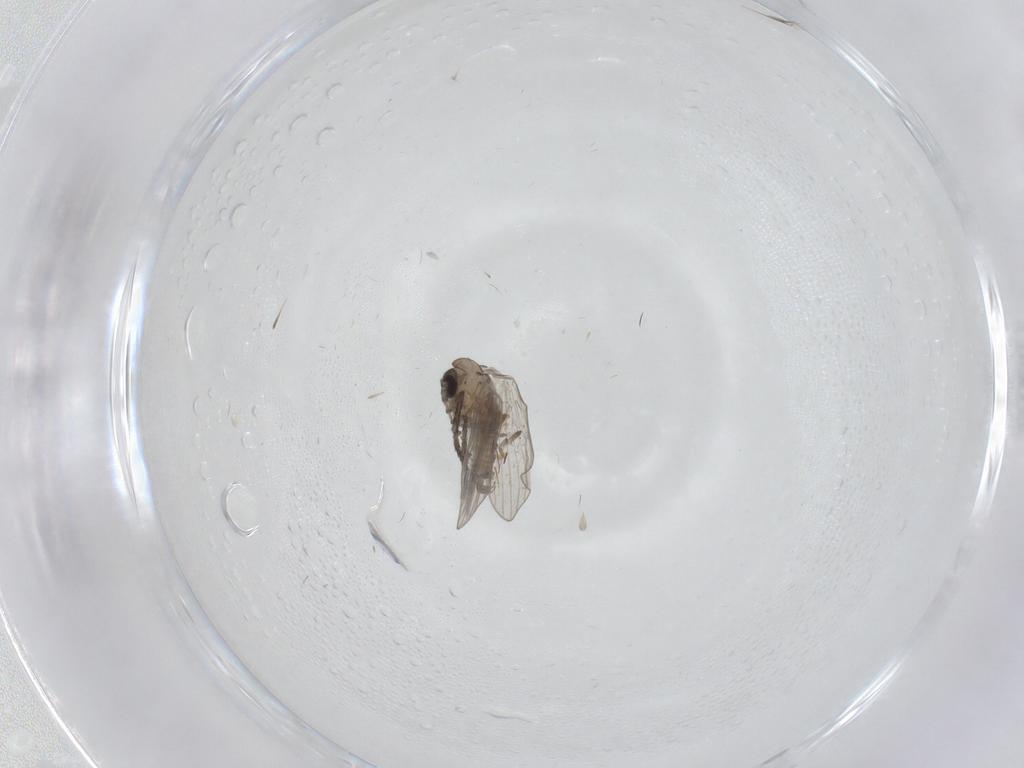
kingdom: Animalia
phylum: Arthropoda
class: Insecta
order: Diptera
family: Psychodidae
